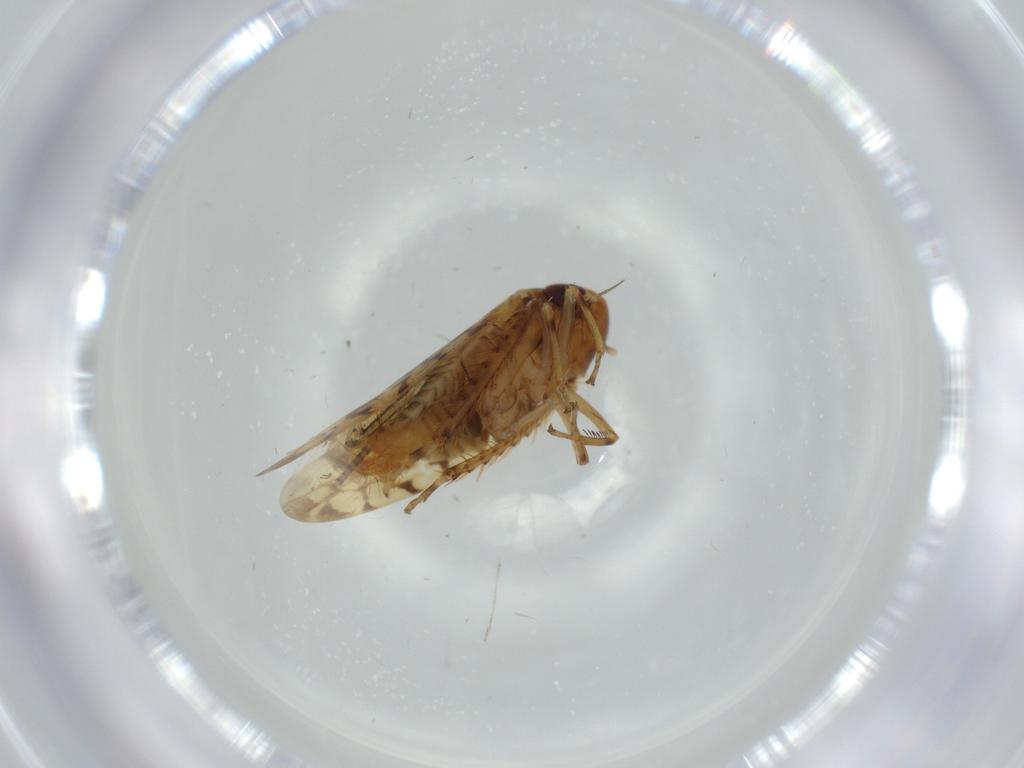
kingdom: Animalia
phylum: Arthropoda
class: Insecta
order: Hemiptera
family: Cicadellidae
